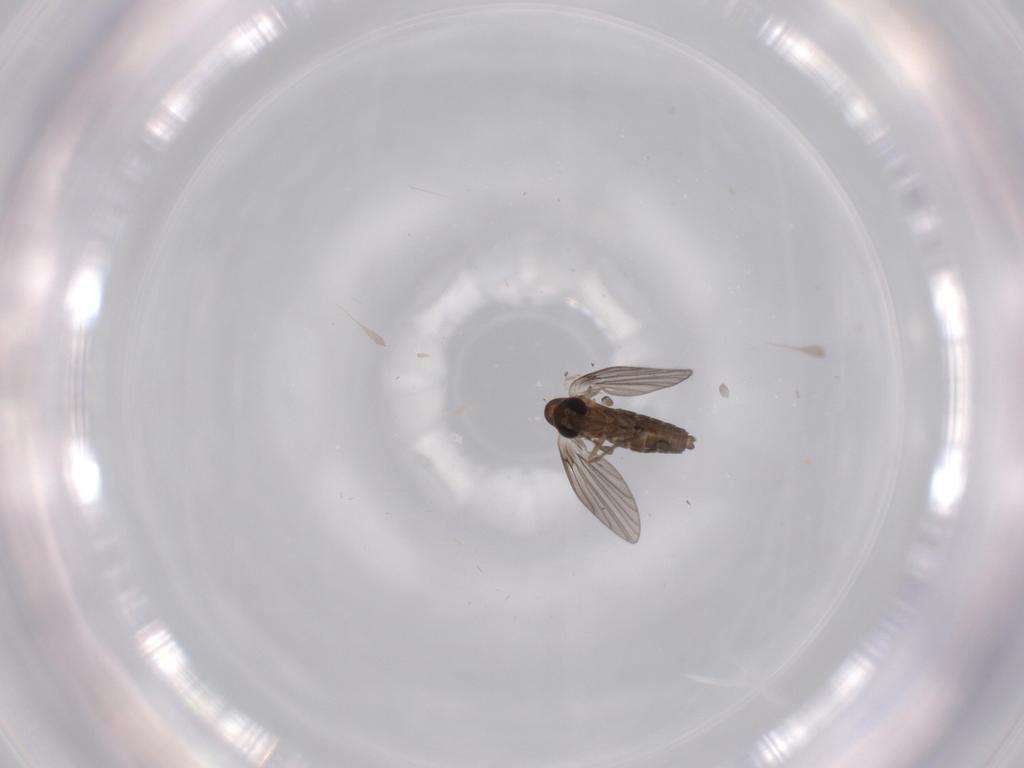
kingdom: Animalia
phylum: Arthropoda
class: Insecta
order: Diptera
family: Psychodidae
